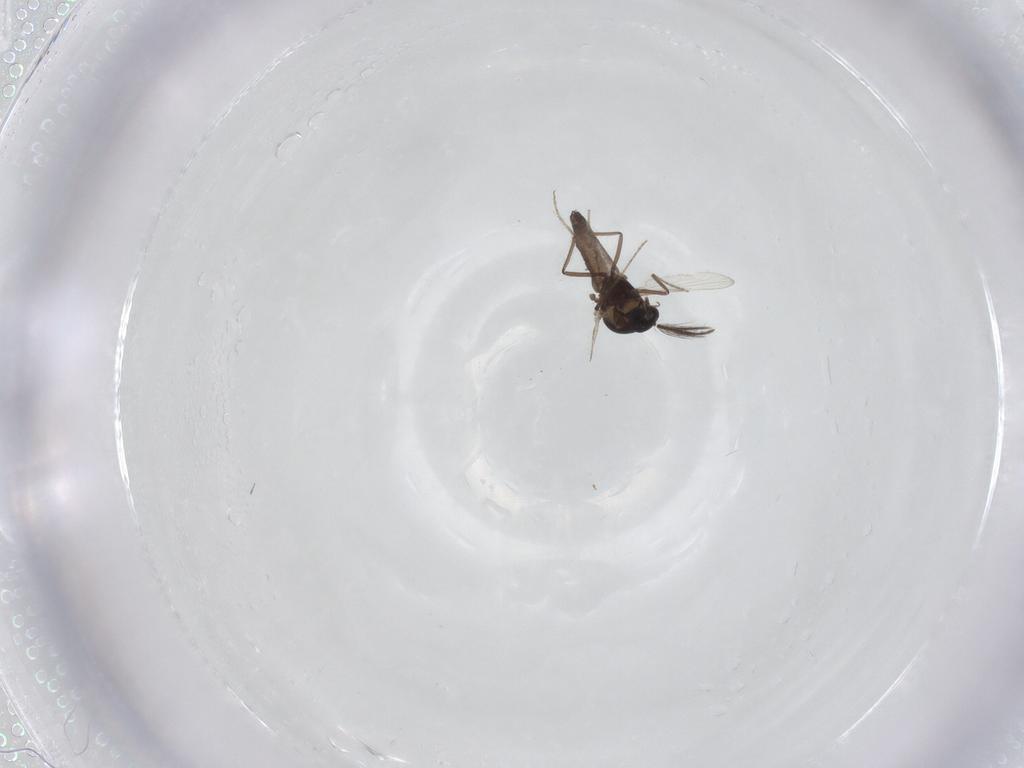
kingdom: Animalia
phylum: Arthropoda
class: Insecta
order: Diptera
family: Ceratopogonidae
